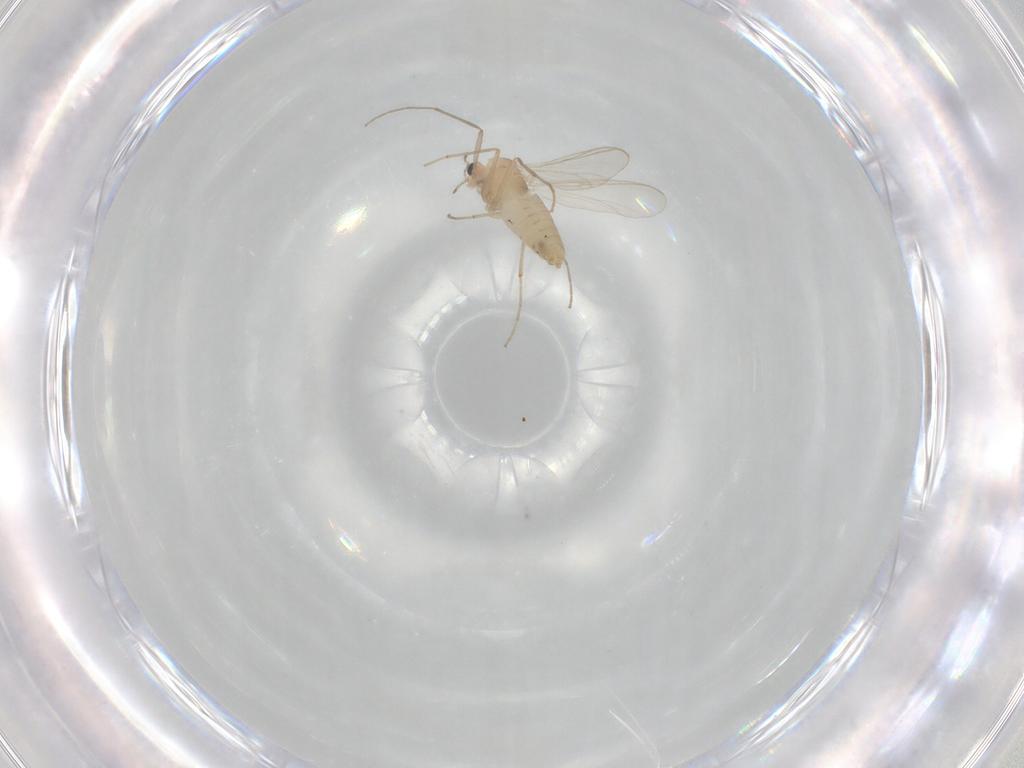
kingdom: Animalia
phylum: Arthropoda
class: Insecta
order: Diptera
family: Chironomidae
